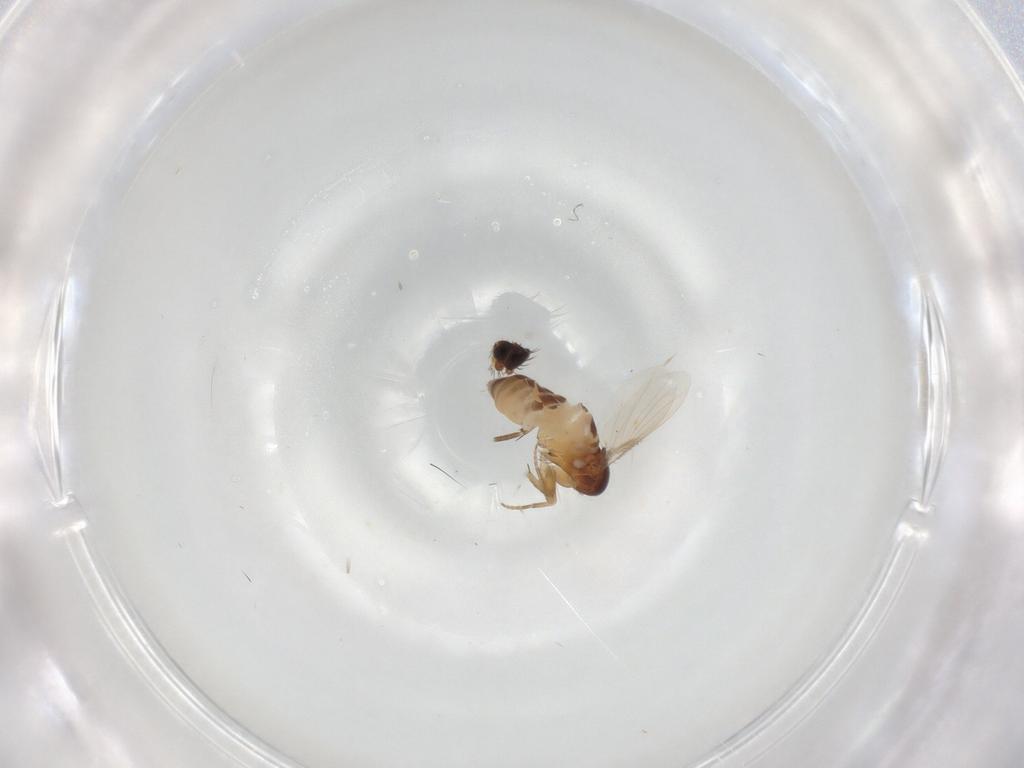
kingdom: Animalia
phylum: Arthropoda
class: Insecta
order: Diptera
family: Phoridae
